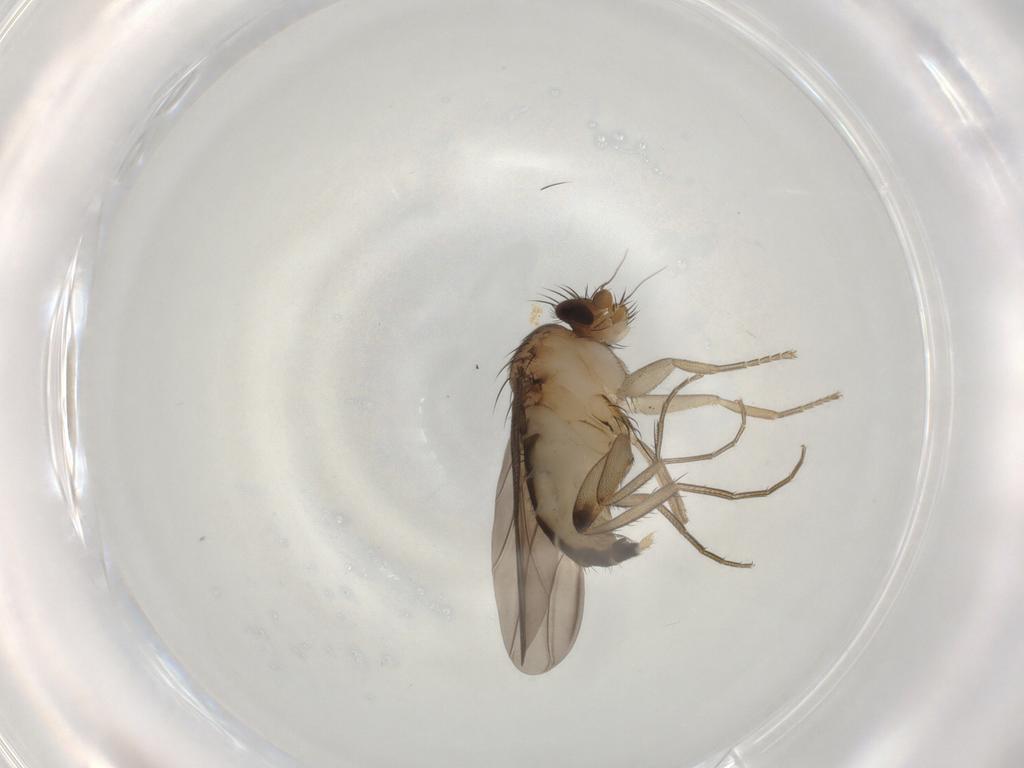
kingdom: Animalia
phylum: Arthropoda
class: Insecta
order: Diptera
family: Phoridae
